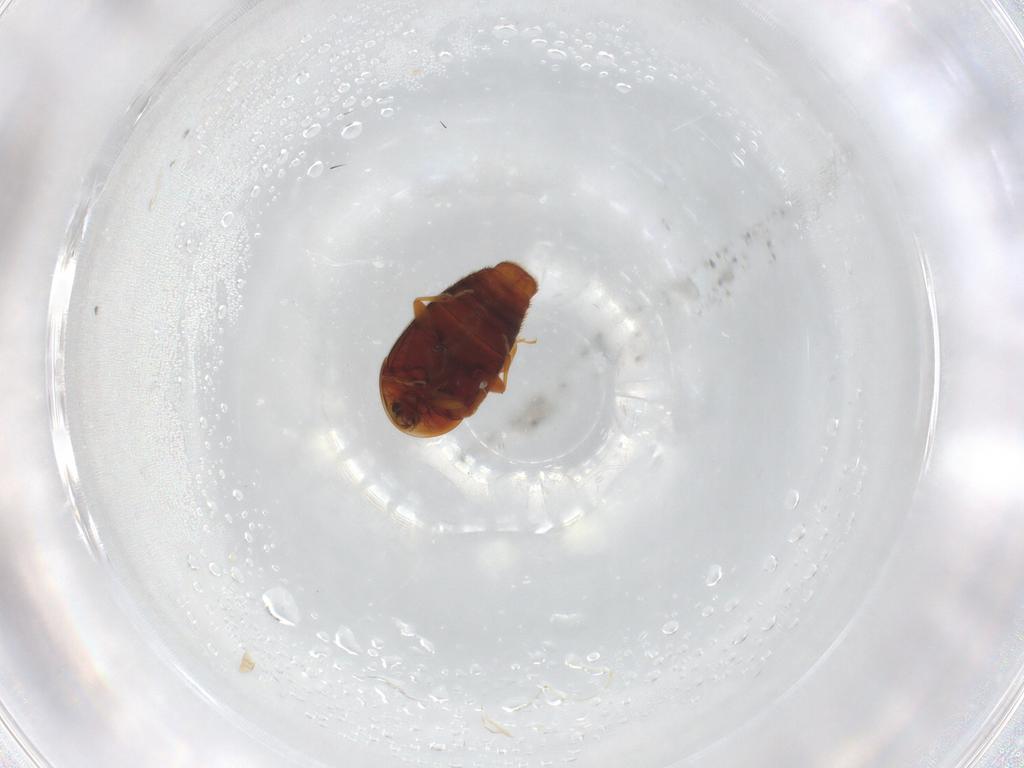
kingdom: Animalia
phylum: Arthropoda
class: Insecta
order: Coleoptera
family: Corylophidae
